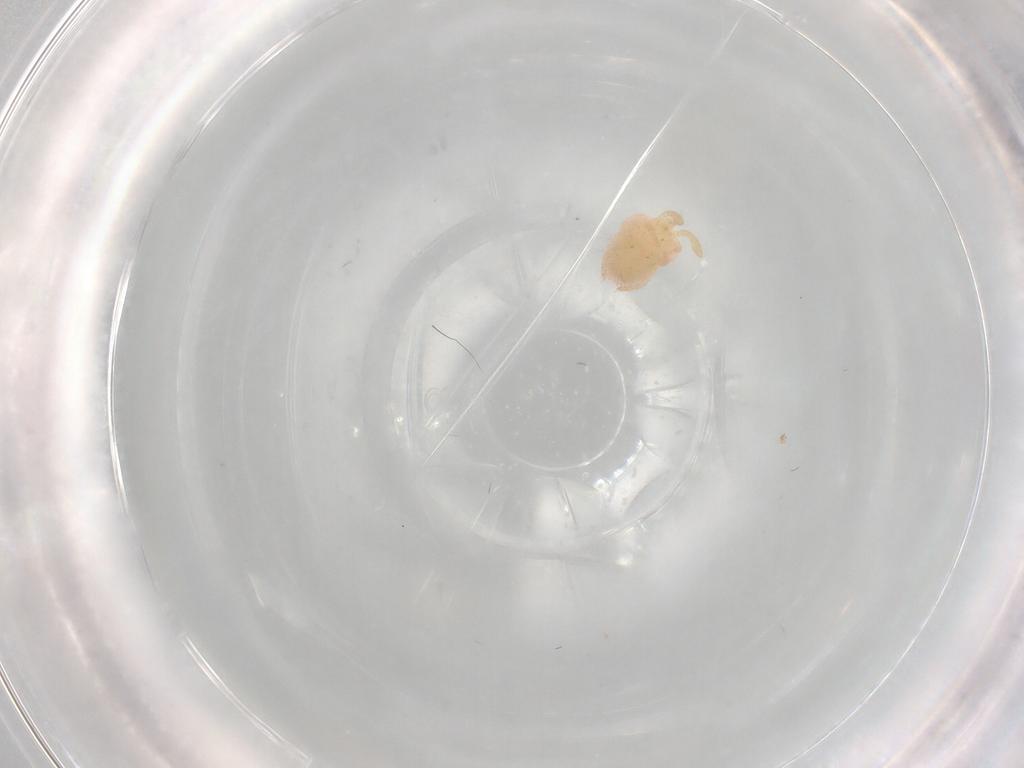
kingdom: Animalia
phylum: Arthropoda
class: Arachnida
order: Trombidiformes
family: Trombidiidae
